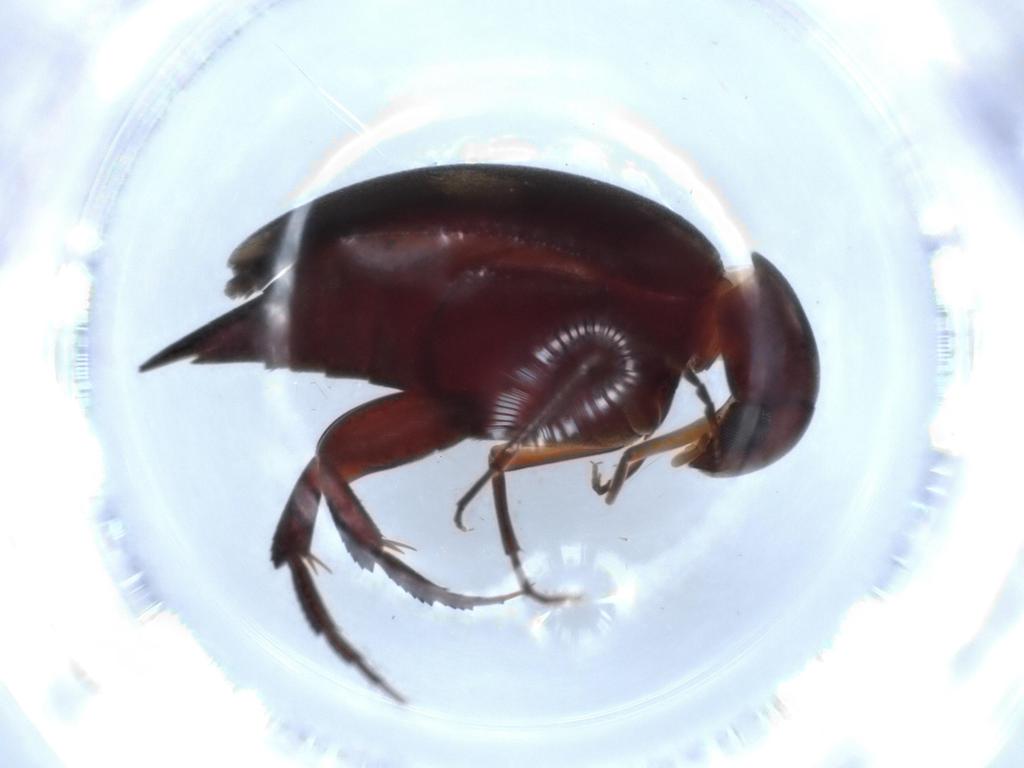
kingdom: Animalia
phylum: Arthropoda
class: Insecta
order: Coleoptera
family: Mordellidae
